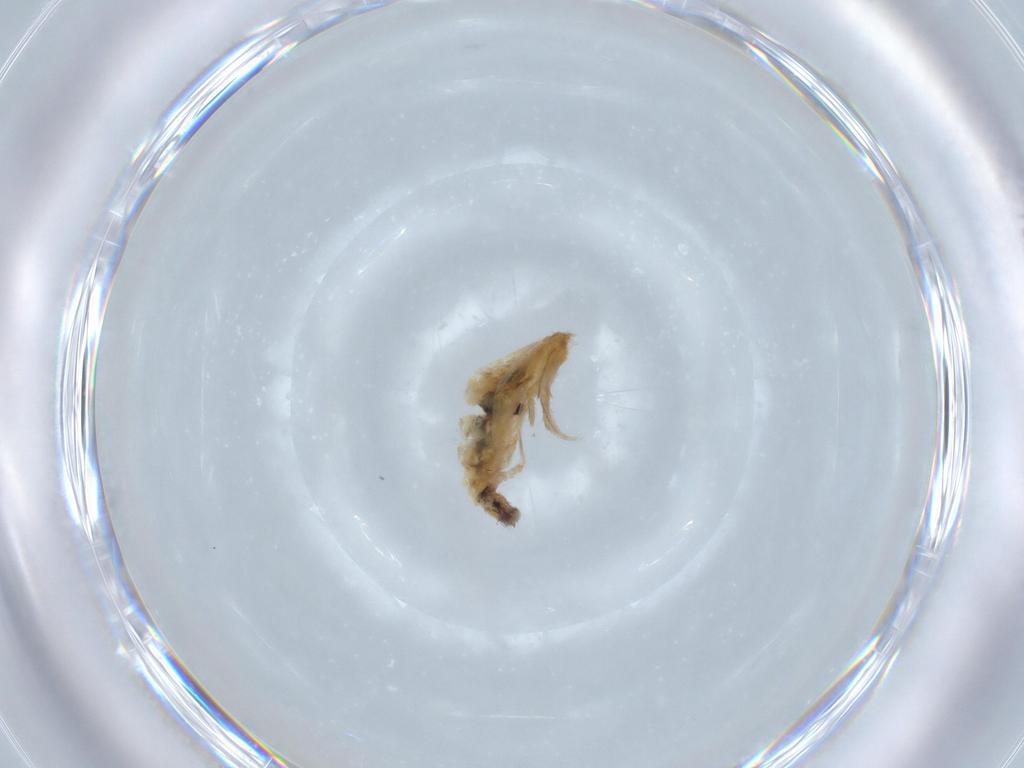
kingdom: Animalia
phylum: Arthropoda
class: Collembola
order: Entomobryomorpha
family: Entomobryidae
